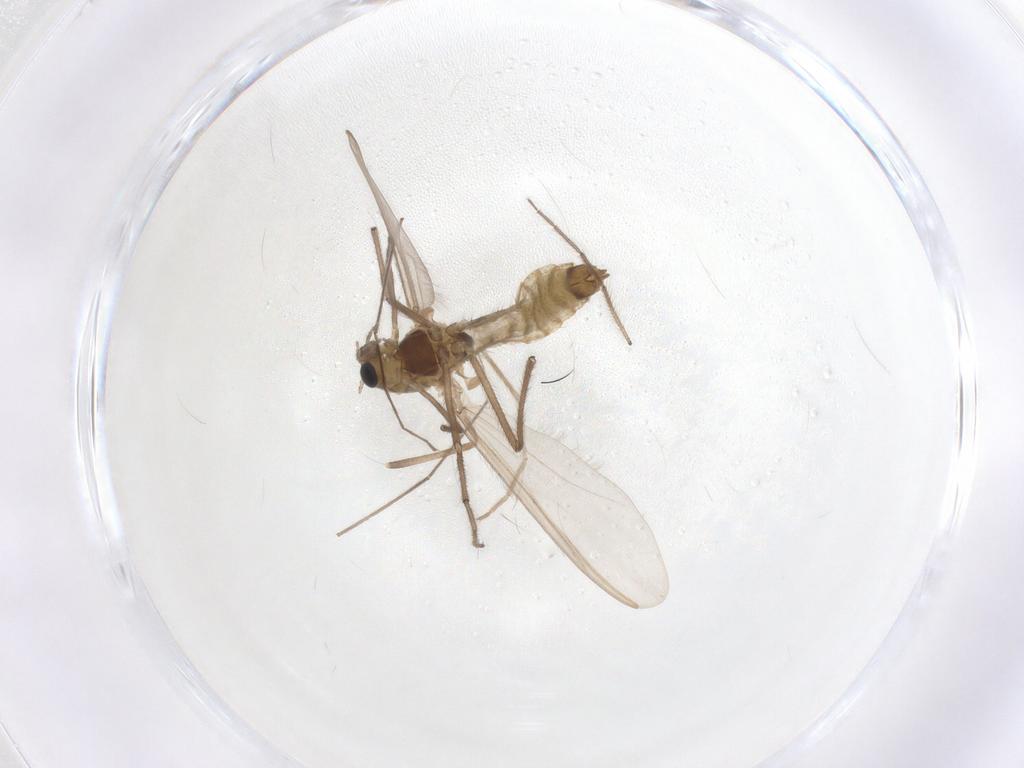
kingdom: Animalia
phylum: Arthropoda
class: Insecta
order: Diptera
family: Chironomidae
